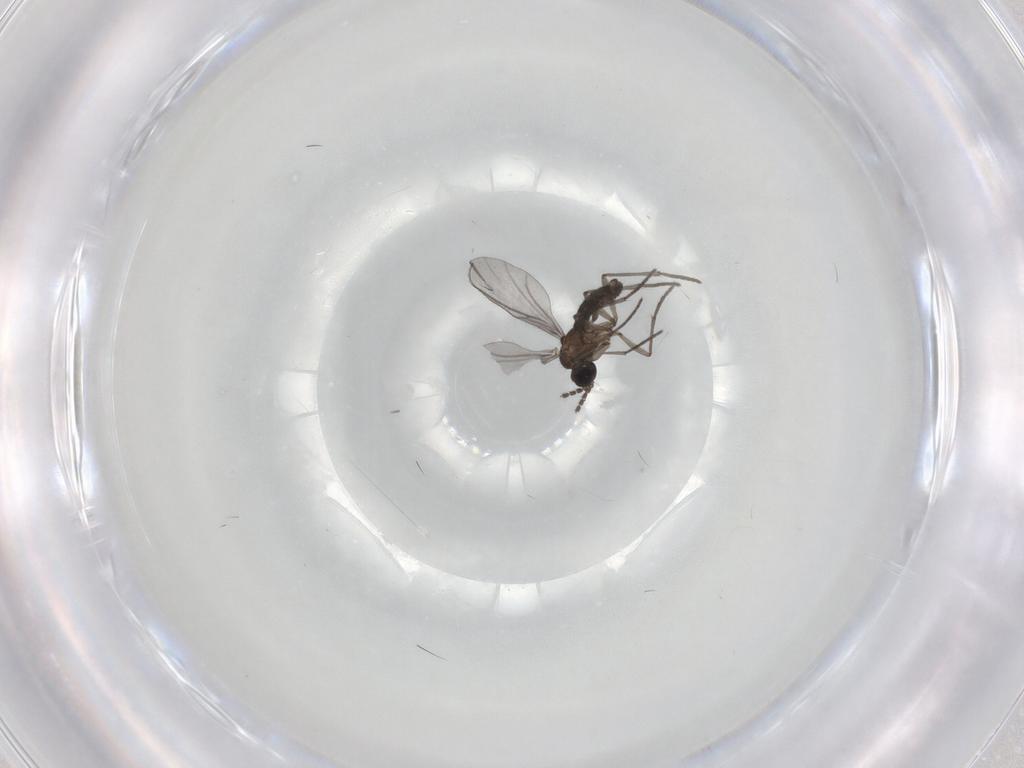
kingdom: Animalia
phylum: Arthropoda
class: Insecta
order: Diptera
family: Sciaridae
